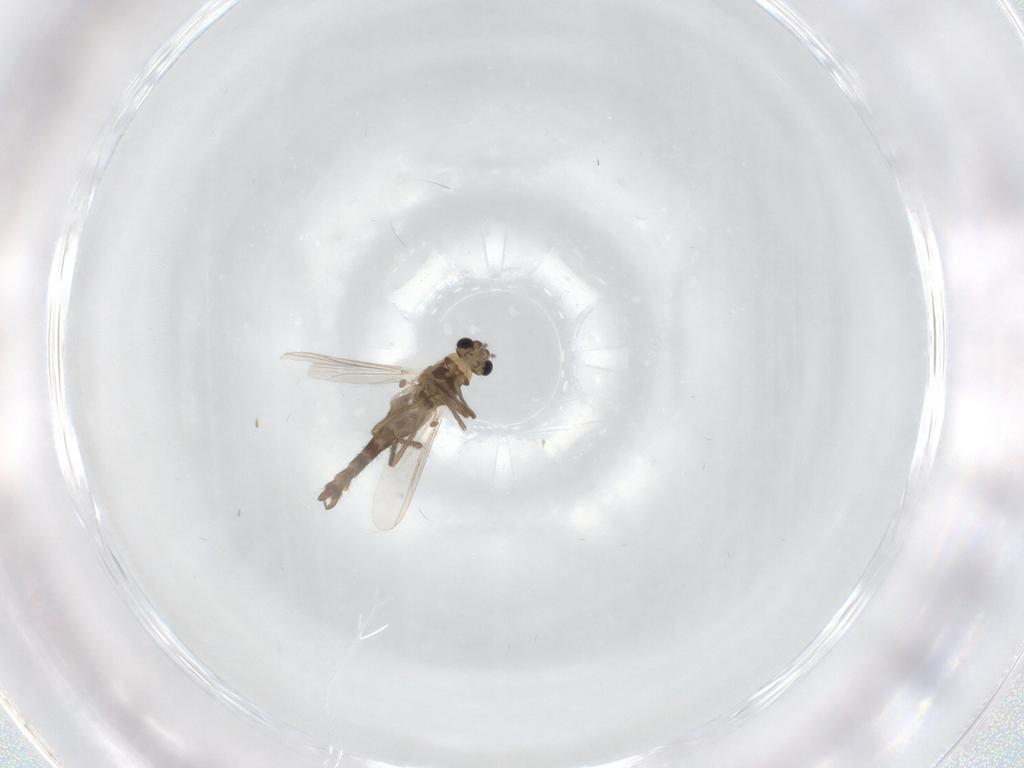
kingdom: Animalia
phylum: Arthropoda
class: Insecta
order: Diptera
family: Chironomidae
